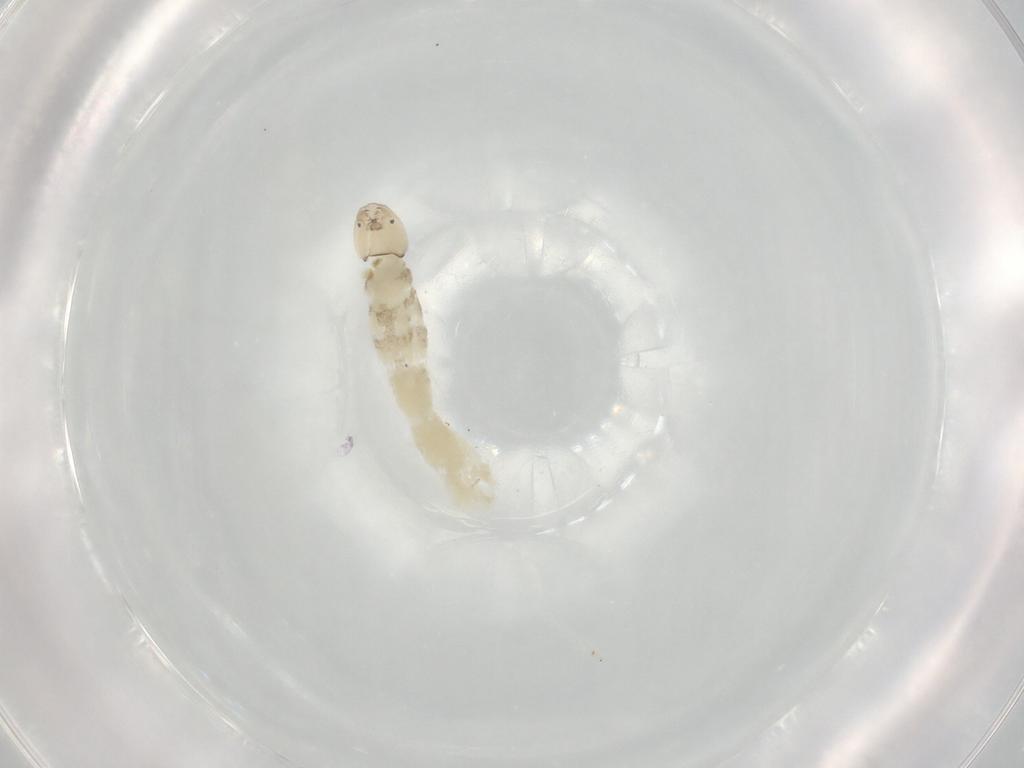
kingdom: Animalia
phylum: Arthropoda
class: Insecta
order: Diptera
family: Chironomidae
